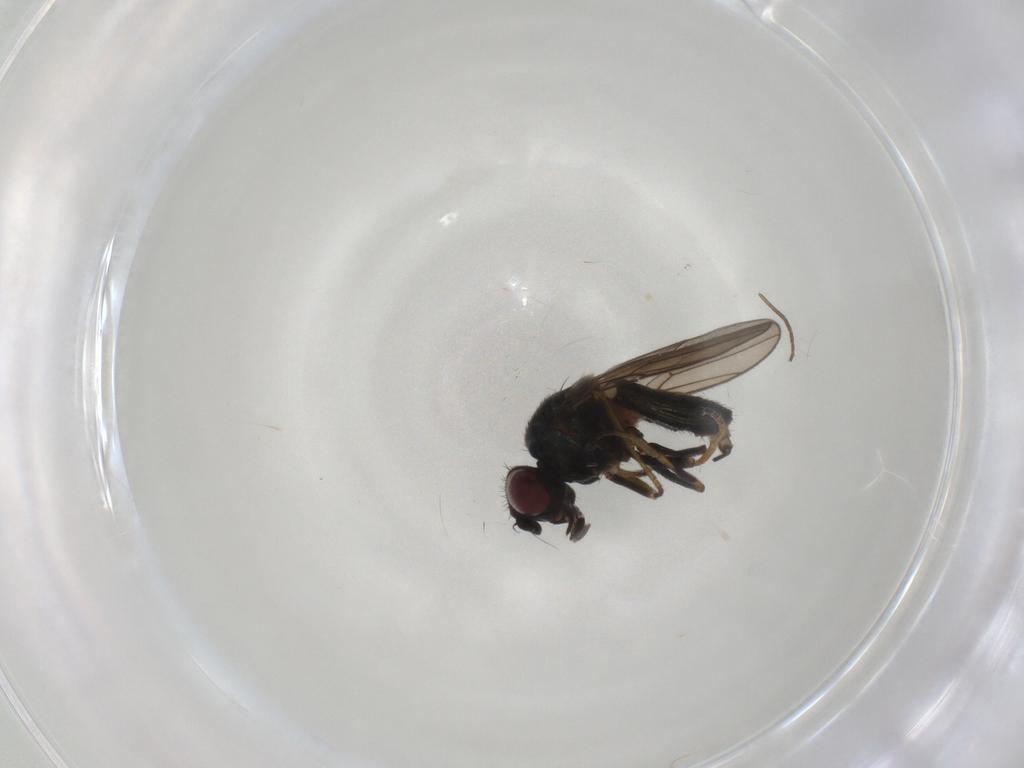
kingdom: Animalia
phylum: Arthropoda
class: Insecta
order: Diptera
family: Chloropidae
